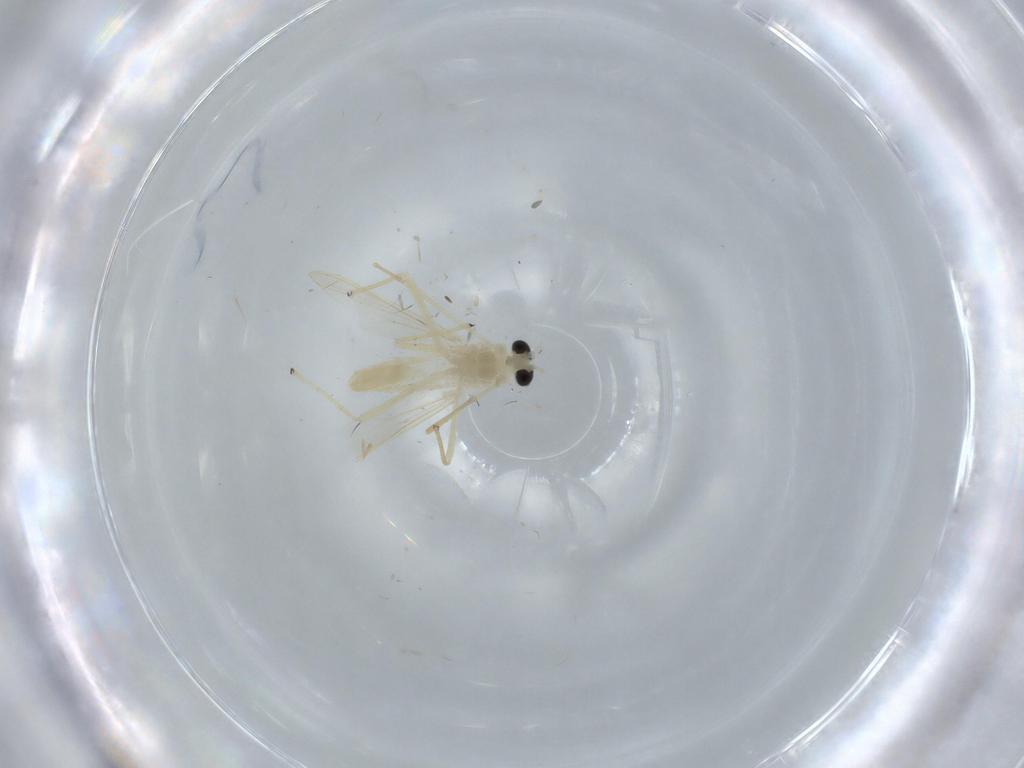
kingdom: Animalia
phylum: Arthropoda
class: Insecta
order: Diptera
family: Chironomidae
